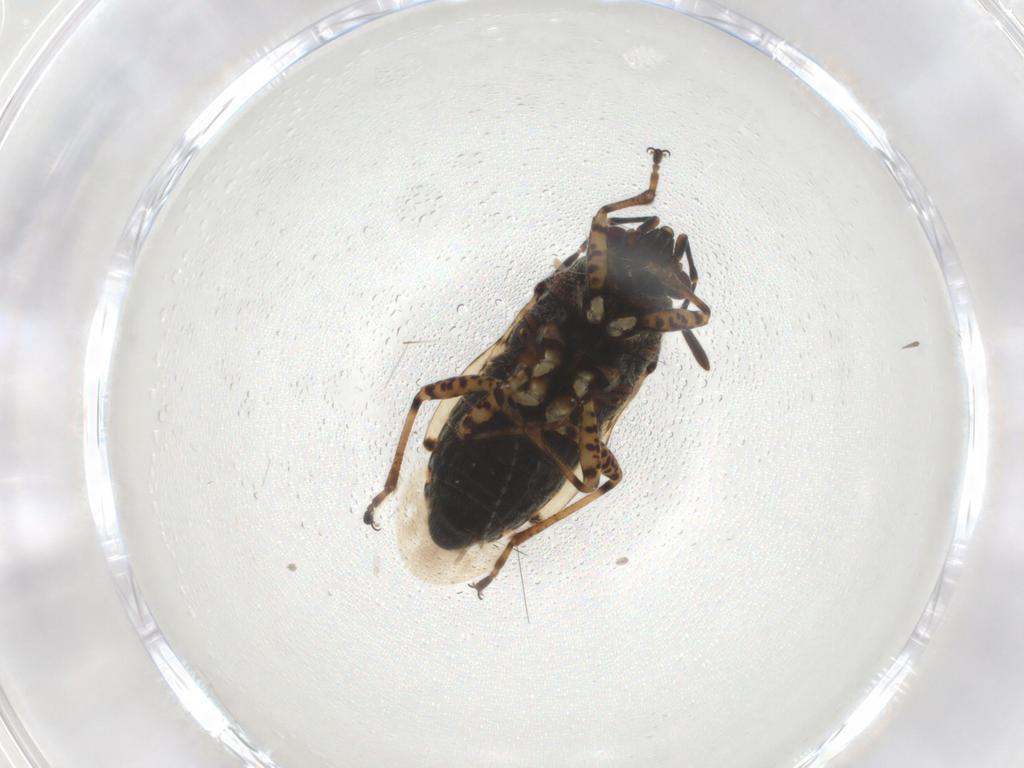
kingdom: Animalia
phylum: Arthropoda
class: Insecta
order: Hemiptera
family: Lygaeidae
